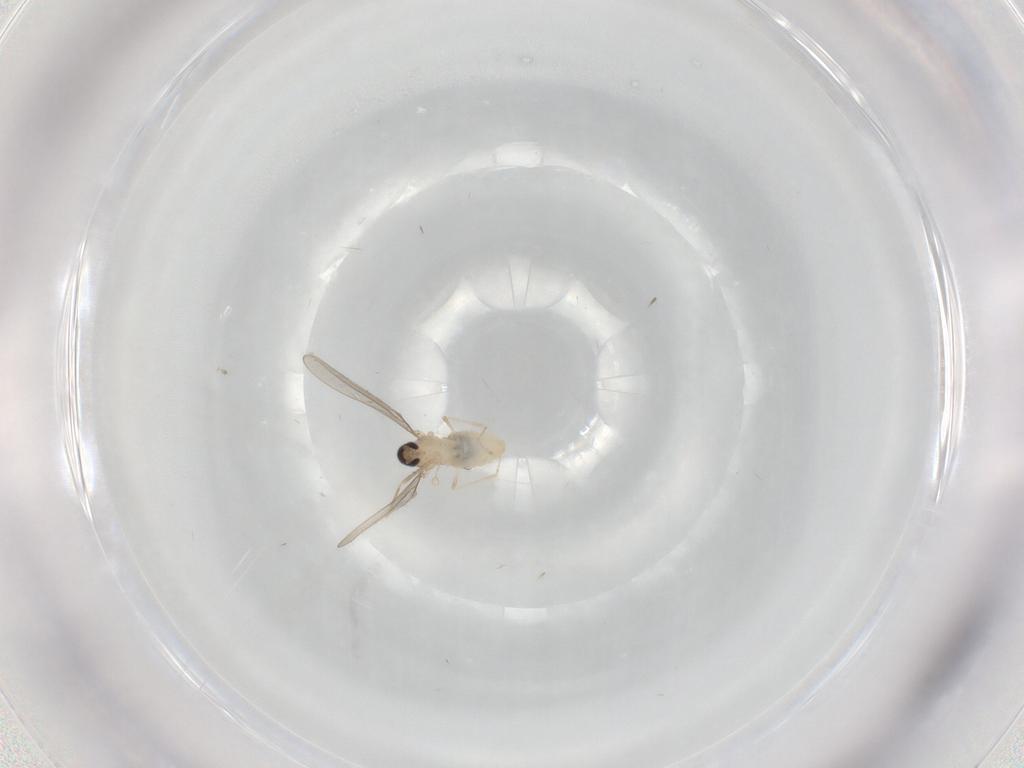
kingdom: Animalia
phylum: Arthropoda
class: Insecta
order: Diptera
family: Cecidomyiidae
